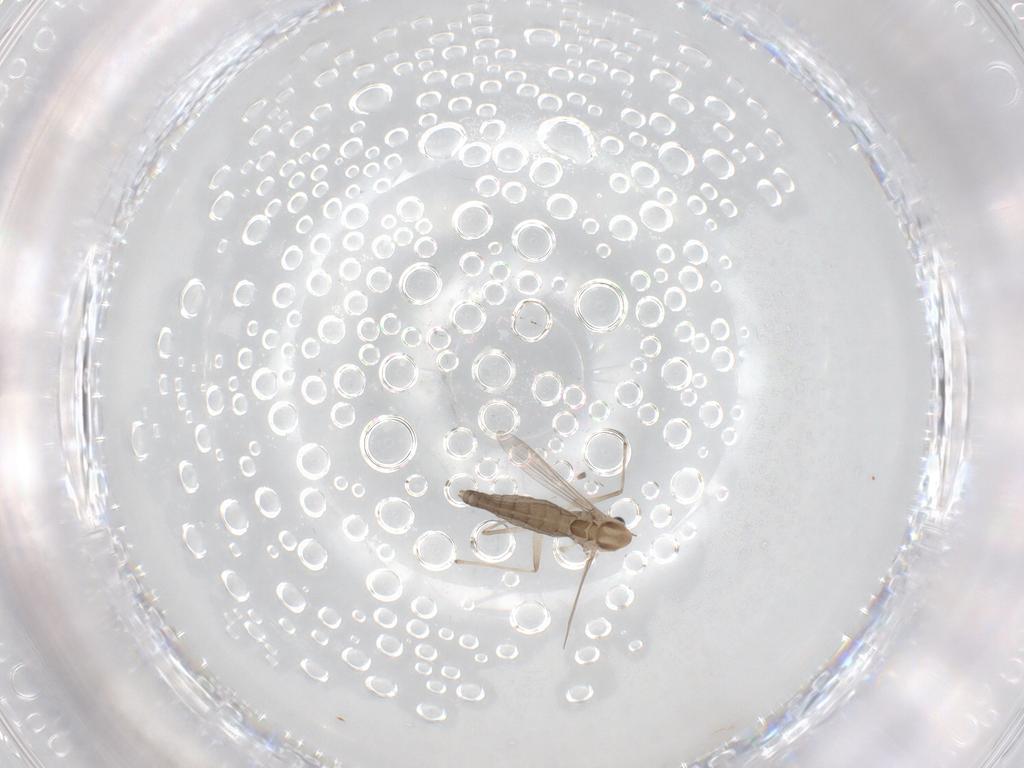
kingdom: Animalia
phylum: Arthropoda
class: Insecta
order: Diptera
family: Chironomidae
